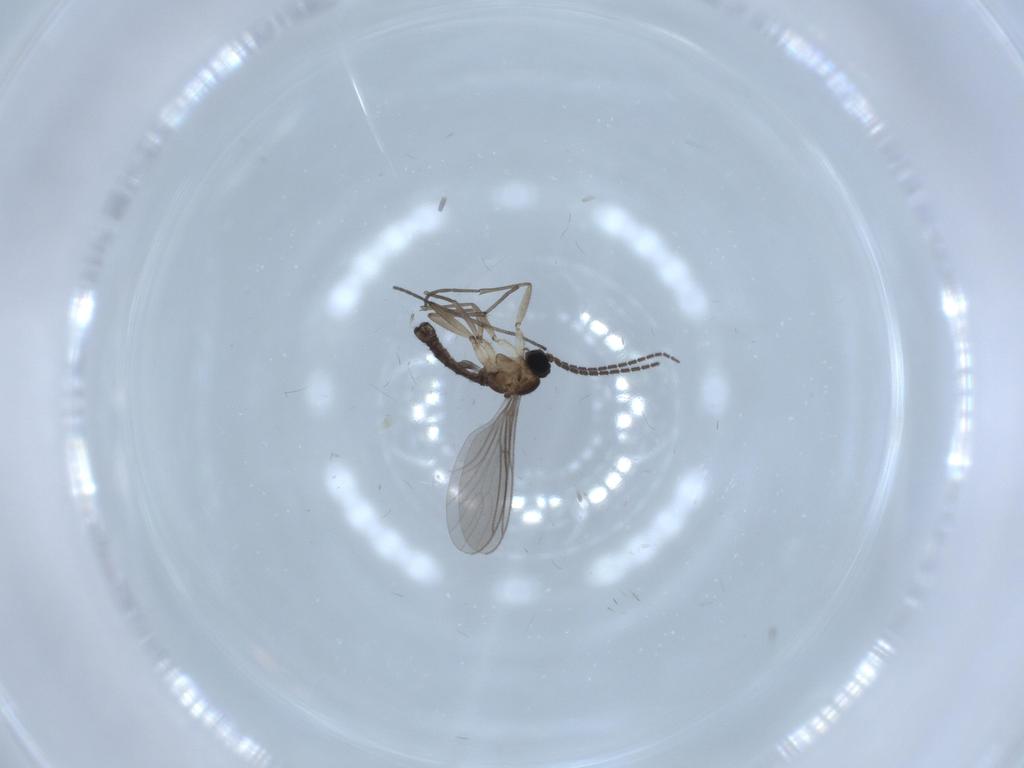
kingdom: Animalia
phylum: Arthropoda
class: Insecta
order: Diptera
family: Sciaridae
